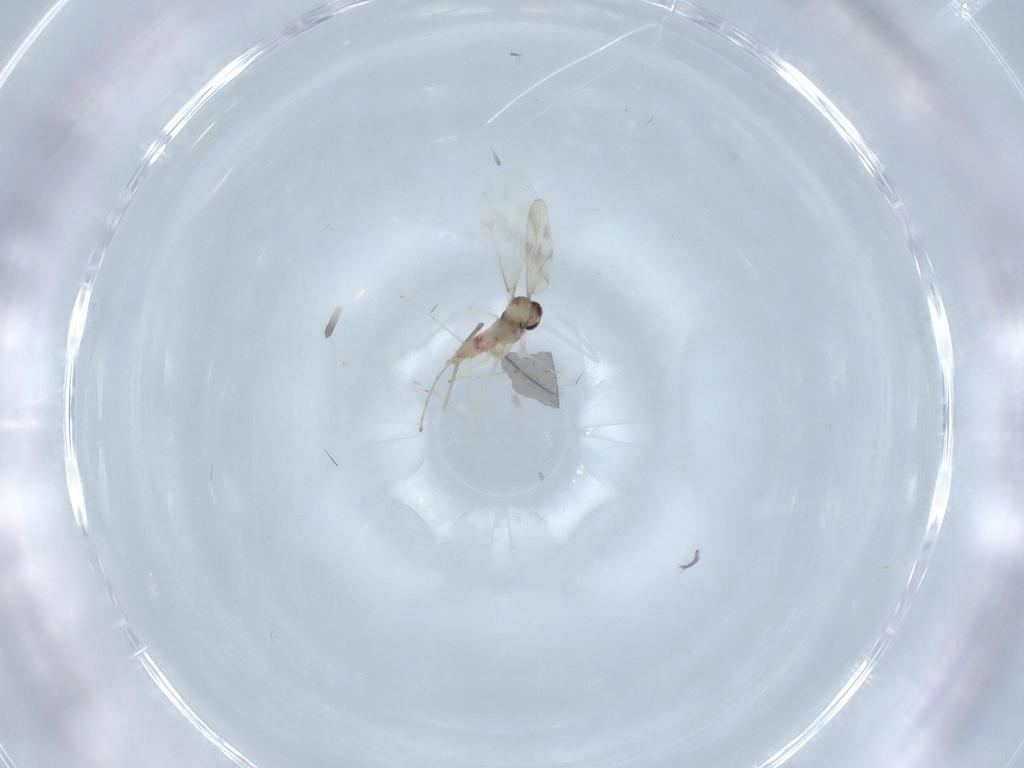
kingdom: Animalia
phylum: Arthropoda
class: Insecta
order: Diptera
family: Cecidomyiidae
